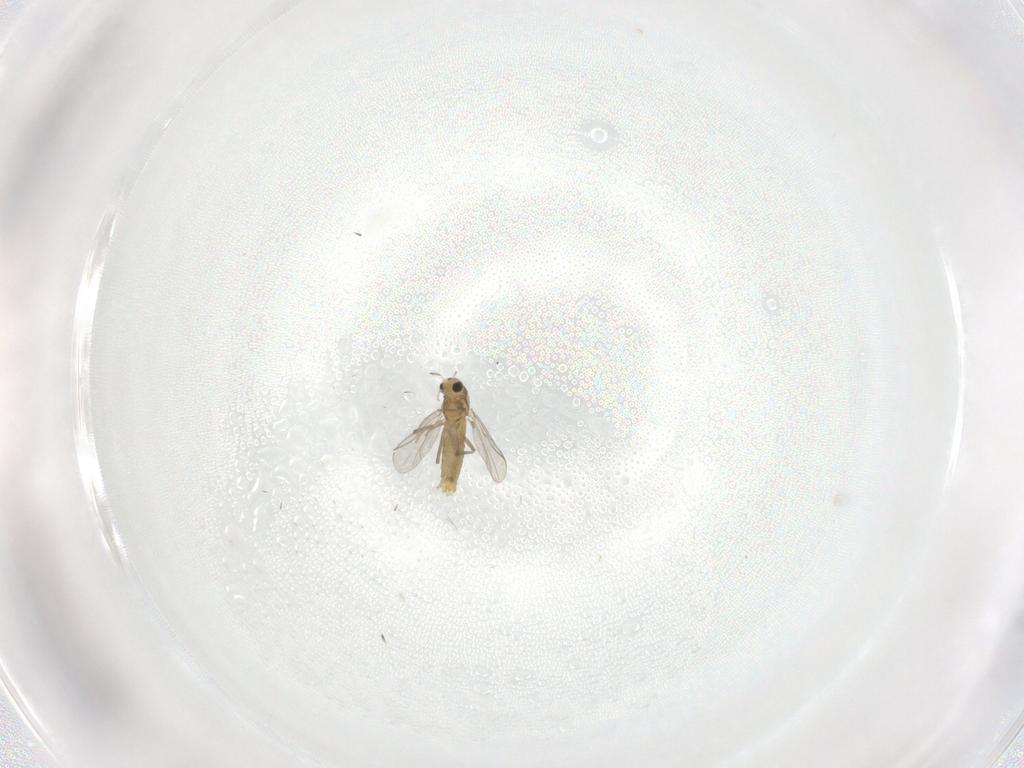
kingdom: Animalia
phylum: Arthropoda
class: Insecta
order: Diptera
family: Chironomidae
